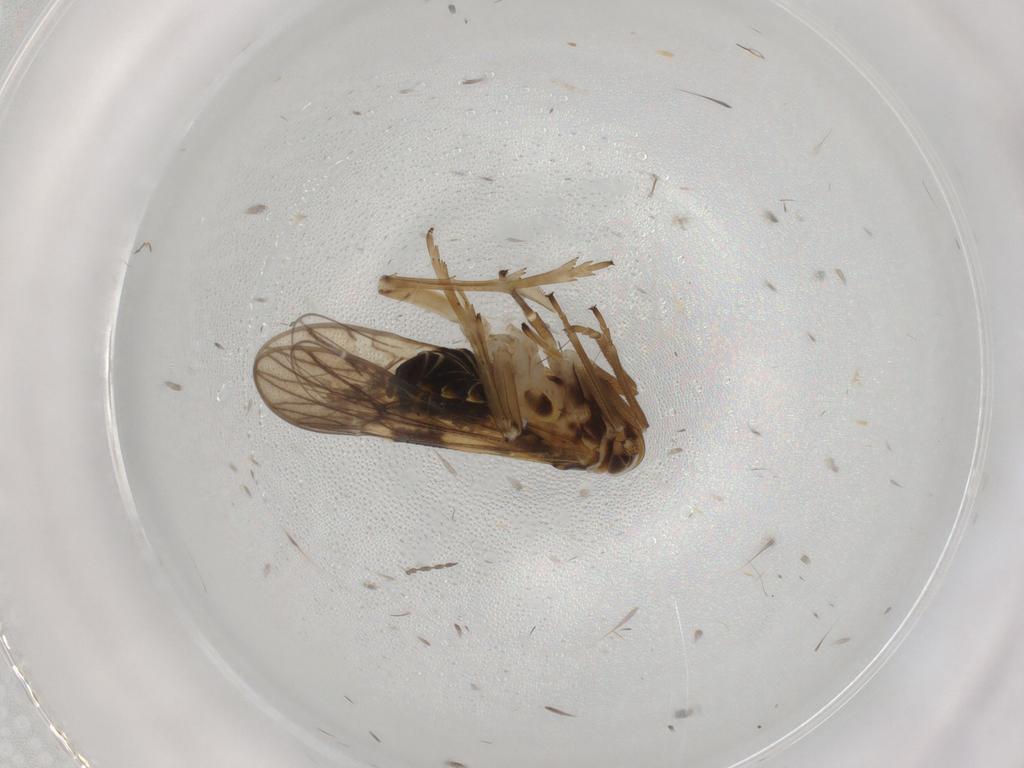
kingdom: Animalia
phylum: Arthropoda
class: Insecta
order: Hemiptera
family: Delphacidae
